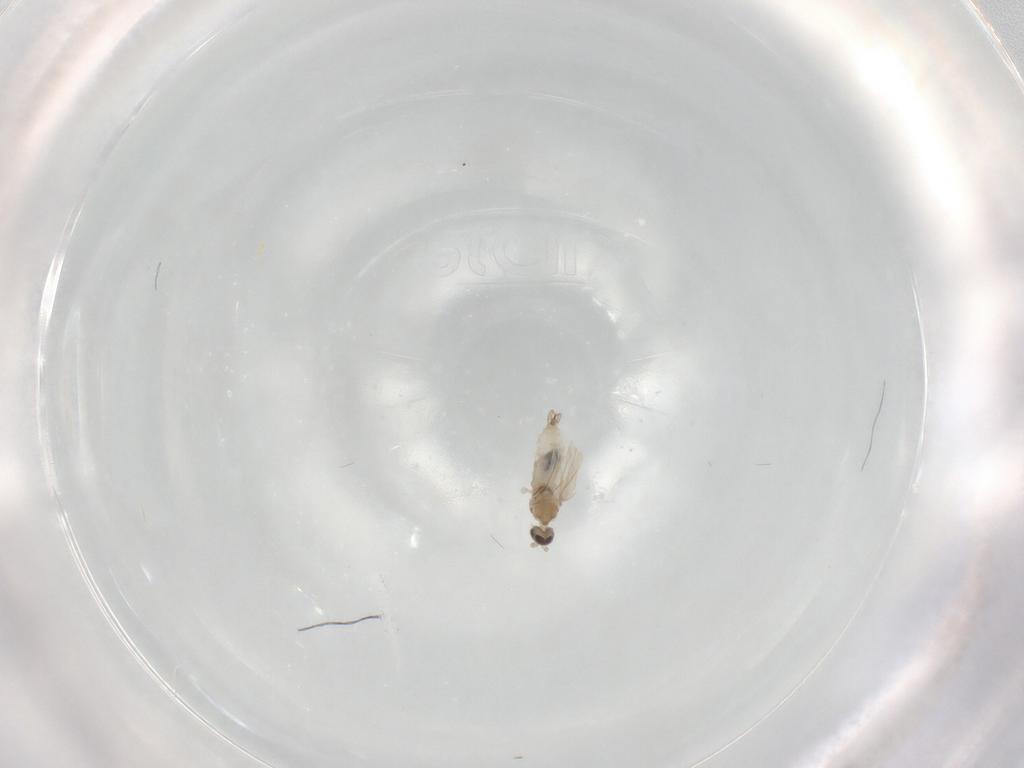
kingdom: Animalia
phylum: Arthropoda
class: Insecta
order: Diptera
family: Cecidomyiidae
